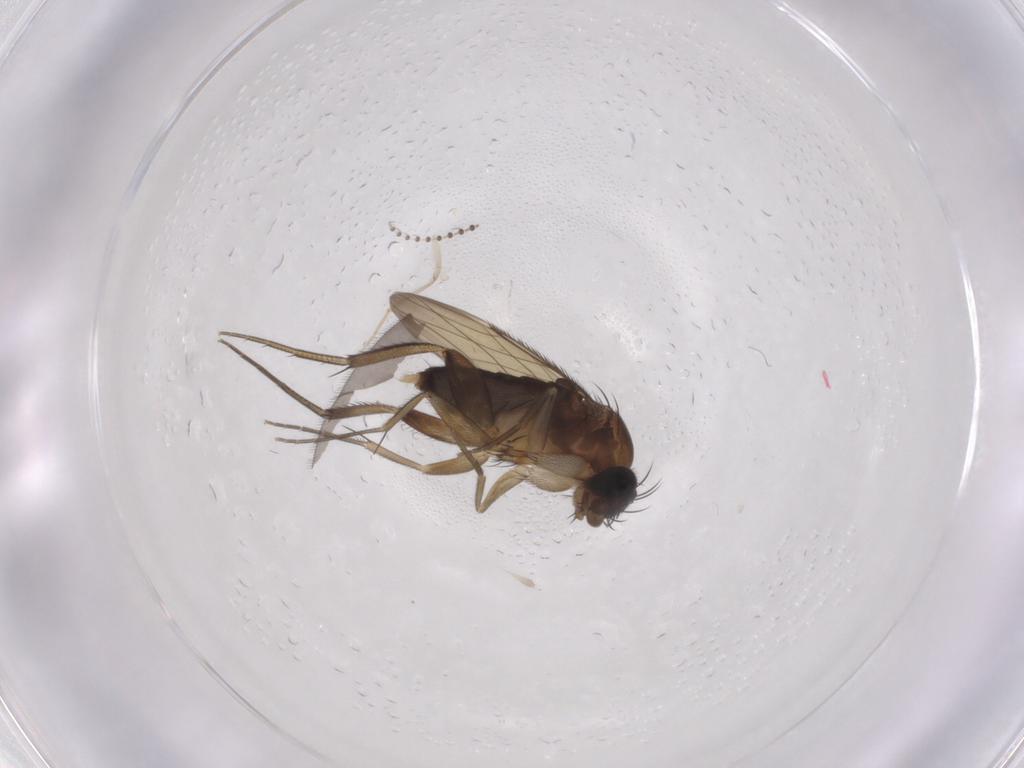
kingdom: Animalia
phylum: Arthropoda
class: Insecta
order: Diptera
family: Phoridae
